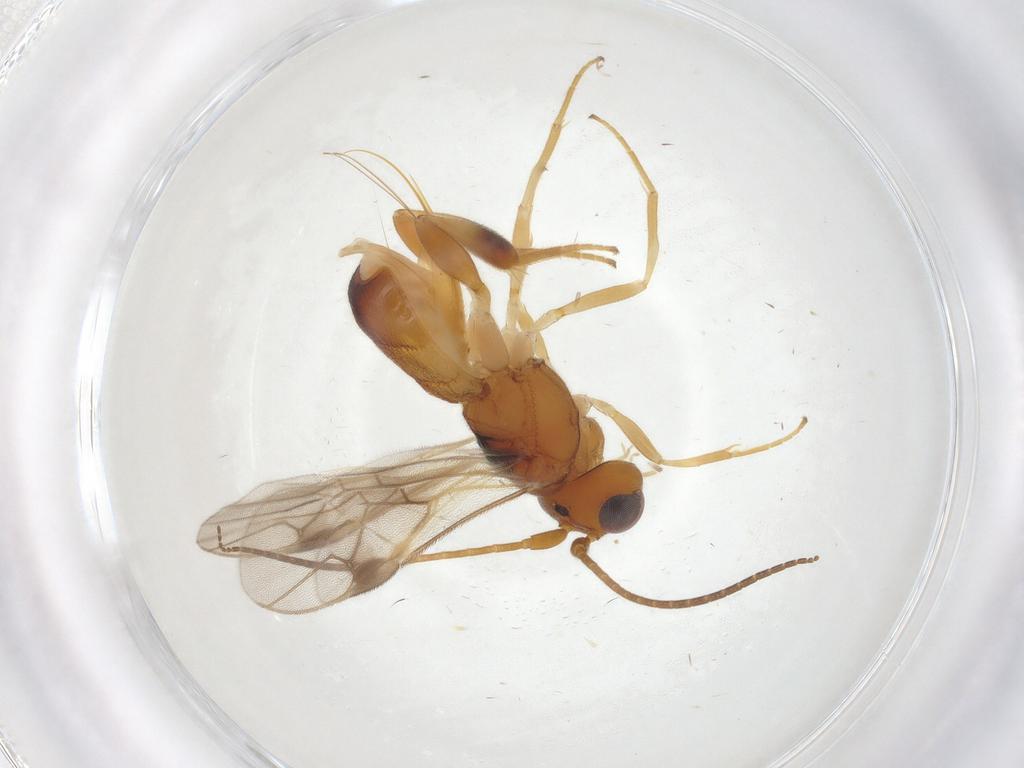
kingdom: Animalia
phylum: Arthropoda
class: Insecta
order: Hymenoptera
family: Braconidae
